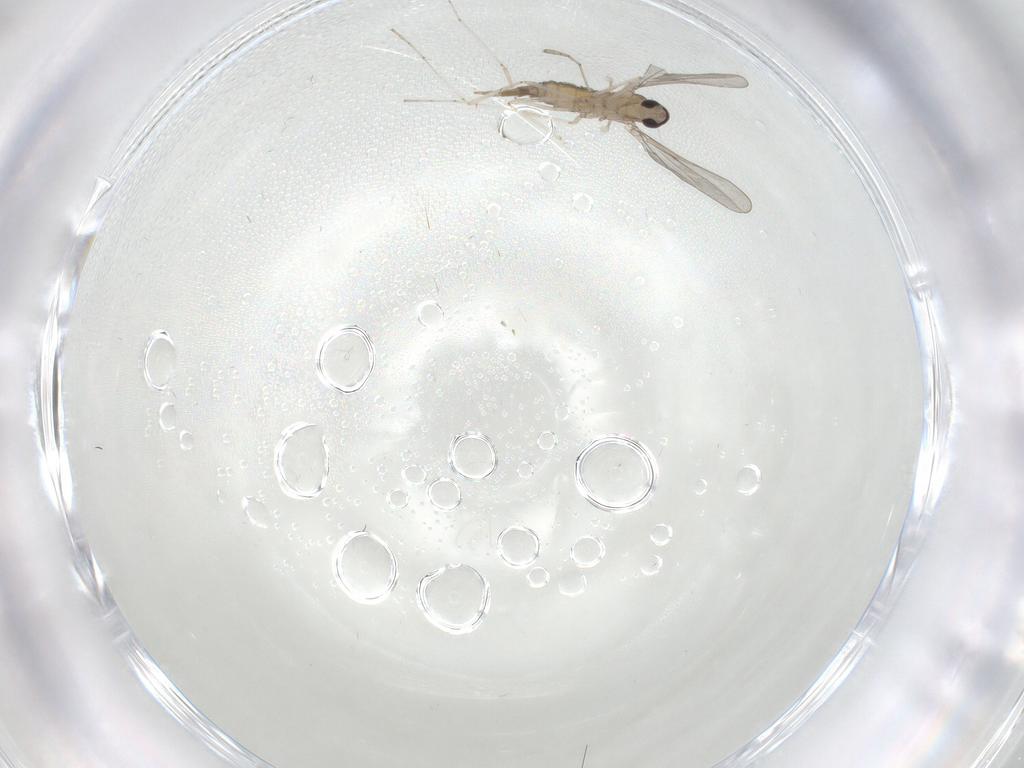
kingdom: Animalia
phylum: Arthropoda
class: Insecta
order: Diptera
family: Cecidomyiidae
